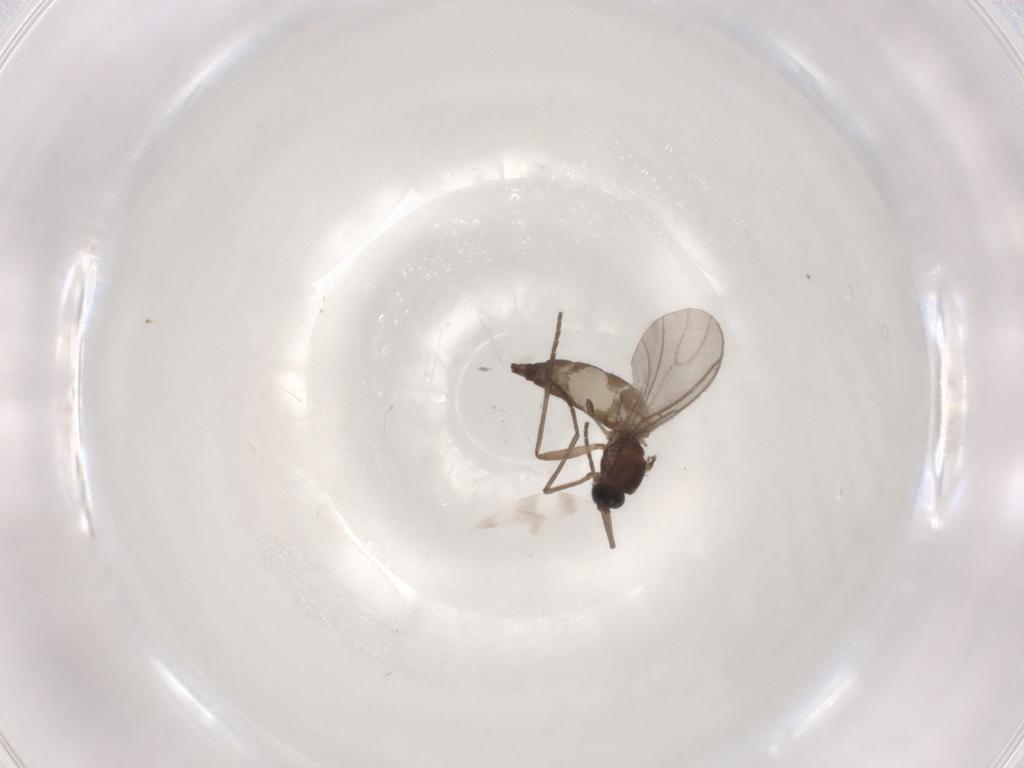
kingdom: Animalia
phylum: Arthropoda
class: Insecta
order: Diptera
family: Cecidomyiidae
